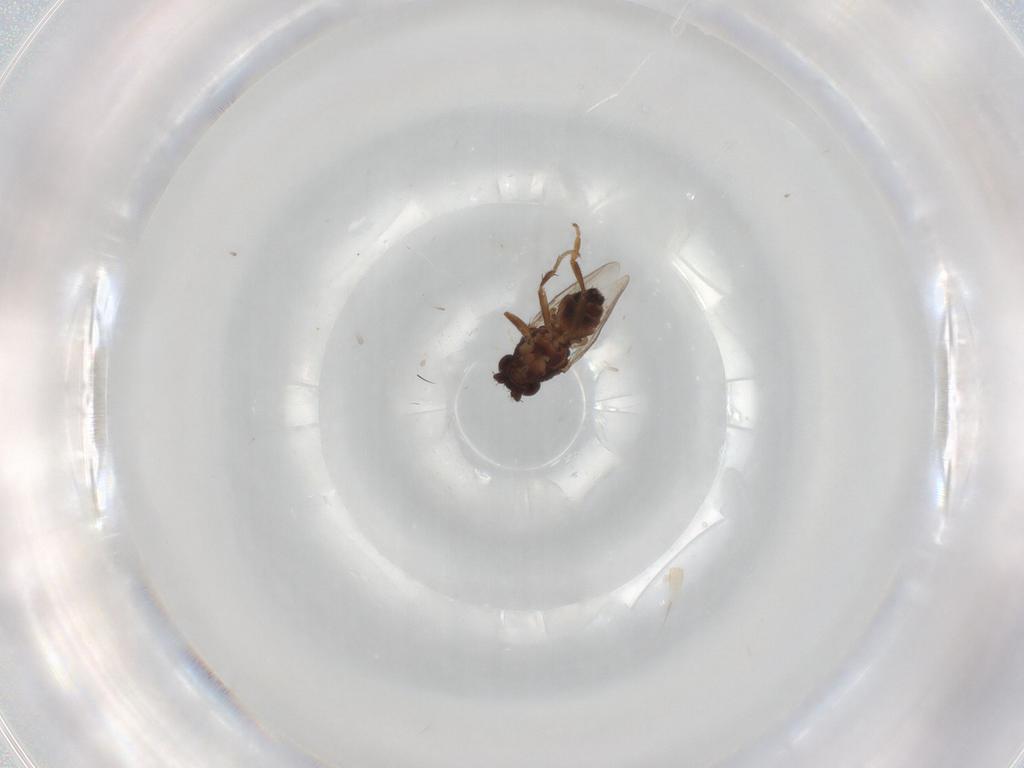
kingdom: Animalia
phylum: Arthropoda
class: Insecta
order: Diptera
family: Sphaeroceridae
